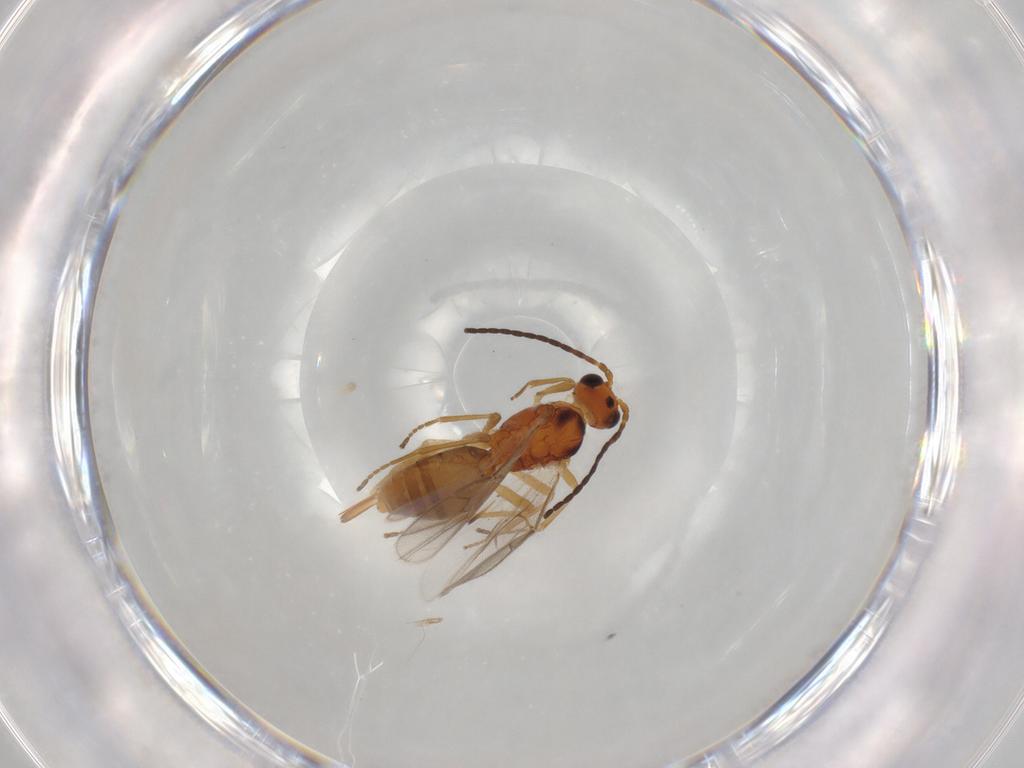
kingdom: Animalia
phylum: Arthropoda
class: Insecta
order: Hymenoptera
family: Braconidae
